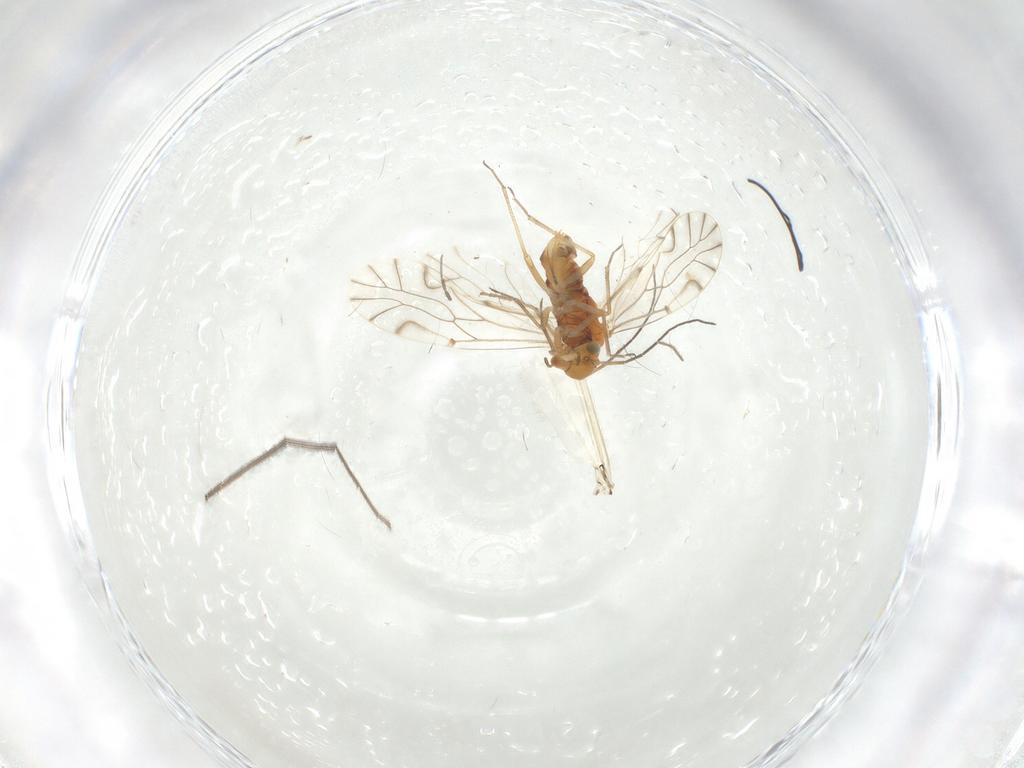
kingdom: Animalia
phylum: Arthropoda
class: Insecta
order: Psocodea
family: Lachesillidae
